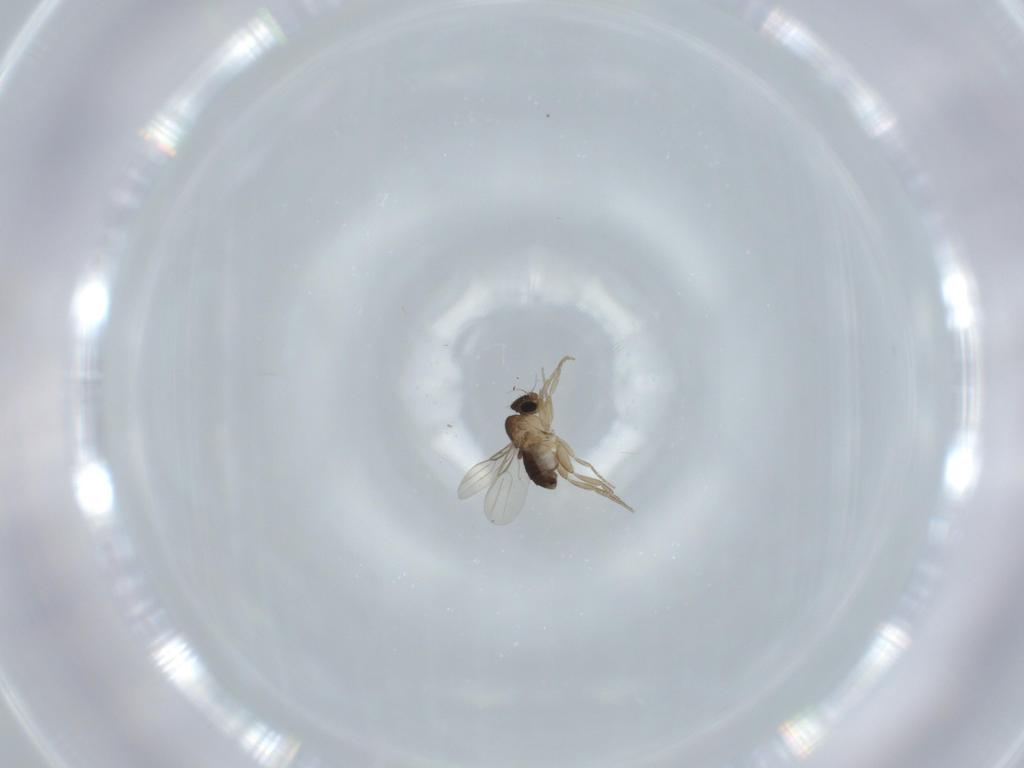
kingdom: Animalia
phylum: Arthropoda
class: Insecta
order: Diptera
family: Phoridae
